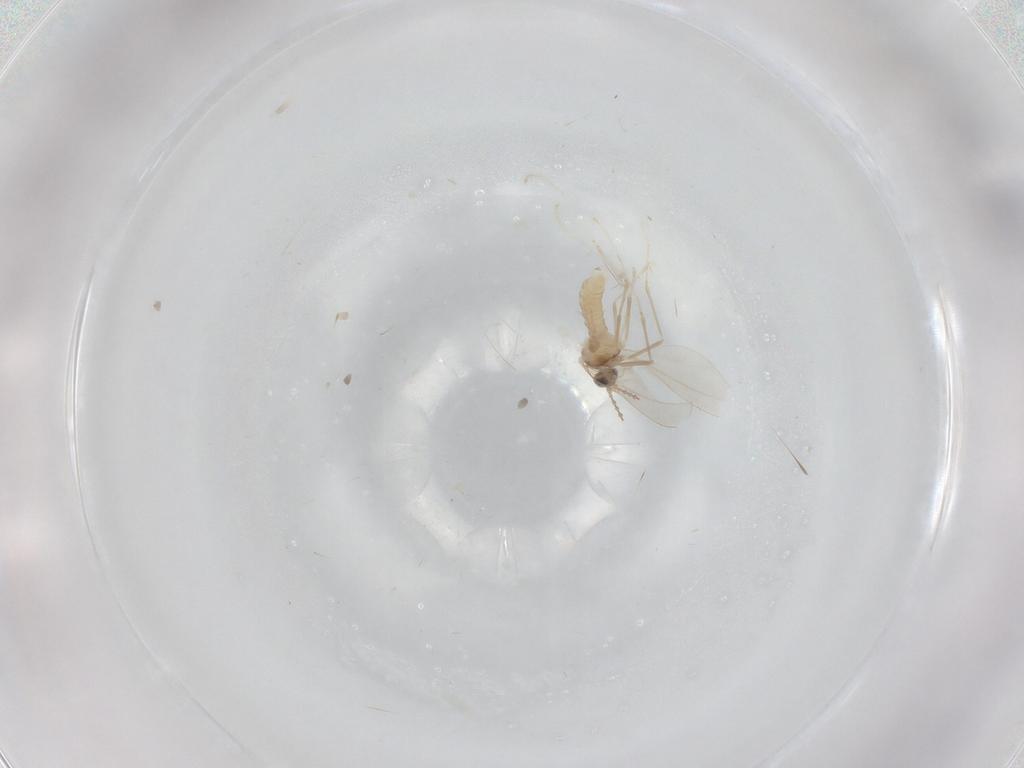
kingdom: Animalia
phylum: Arthropoda
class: Insecta
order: Diptera
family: Cecidomyiidae
